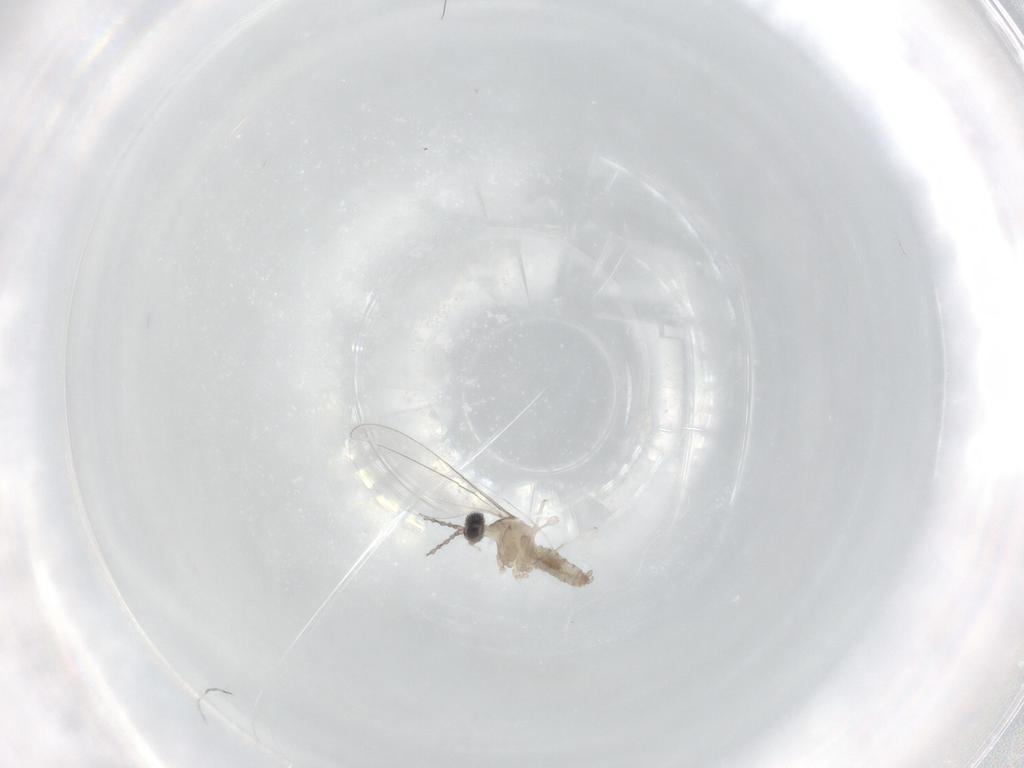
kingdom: Animalia
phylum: Arthropoda
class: Insecta
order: Diptera
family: Cecidomyiidae
